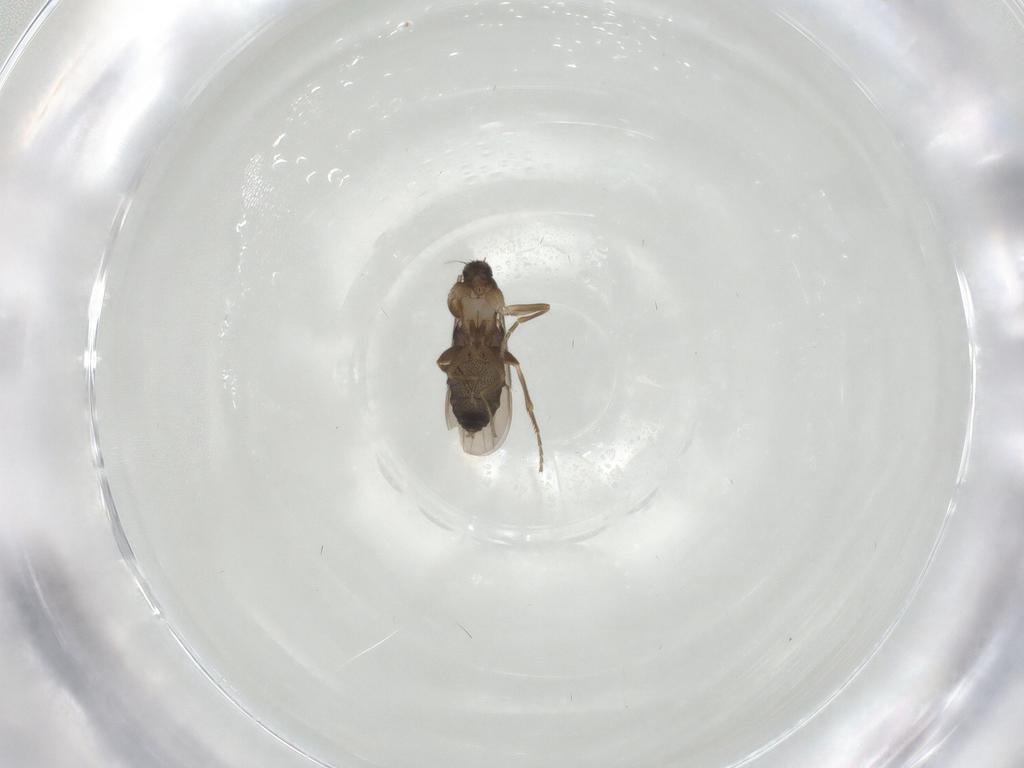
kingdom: Animalia
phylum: Arthropoda
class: Insecta
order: Diptera
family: Phoridae
